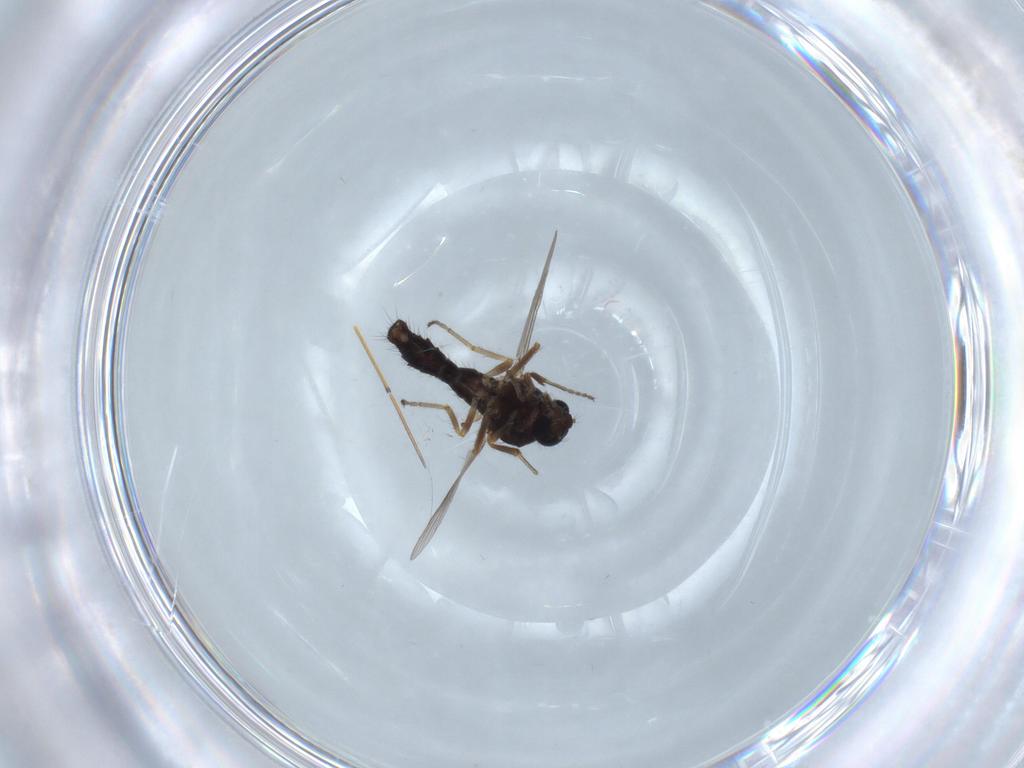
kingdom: Animalia
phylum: Arthropoda
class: Insecta
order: Diptera
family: Ceratopogonidae
